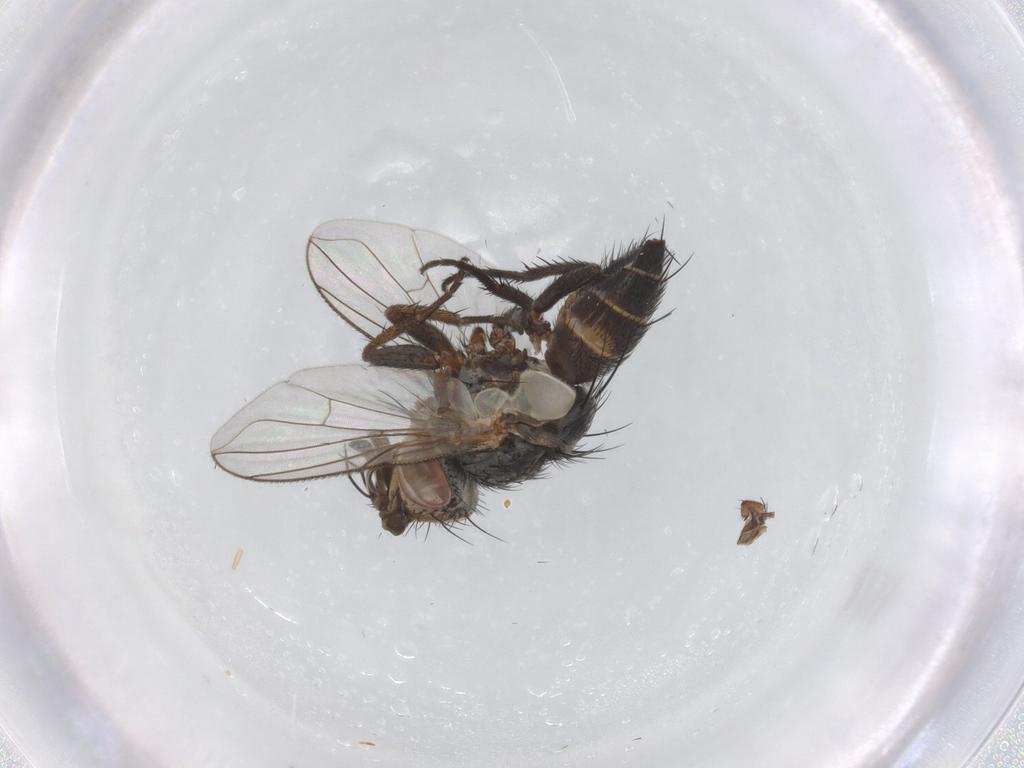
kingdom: Animalia
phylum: Arthropoda
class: Insecta
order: Diptera
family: Tachinidae
